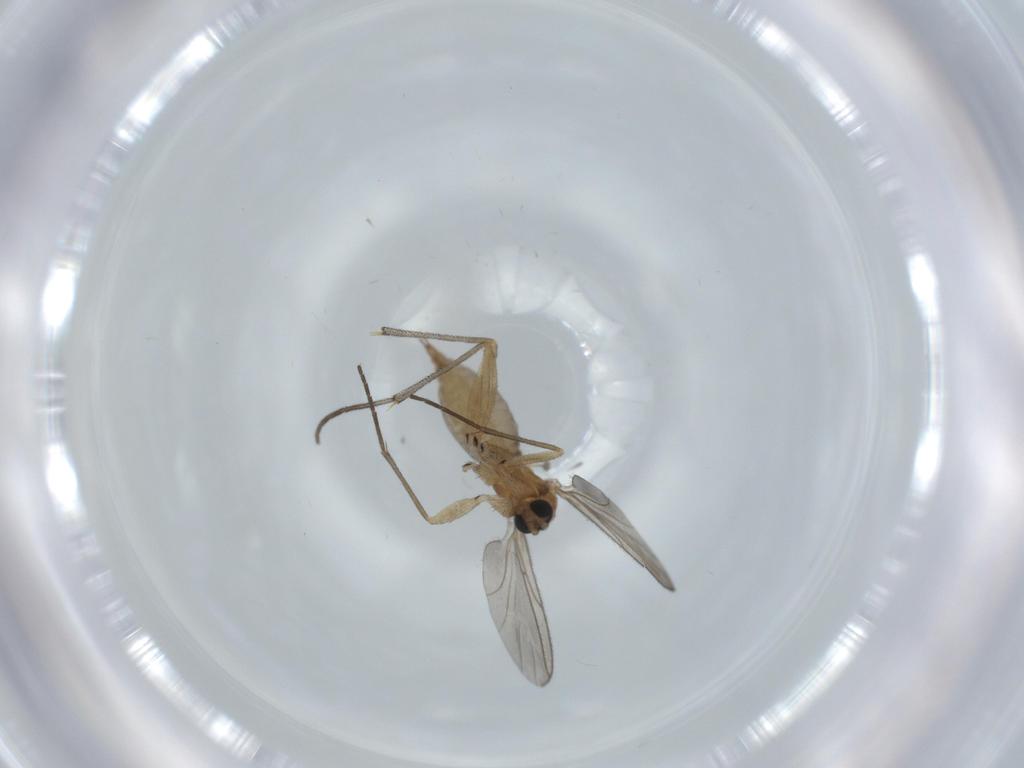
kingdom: Animalia
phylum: Arthropoda
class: Insecta
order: Diptera
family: Sciaridae
